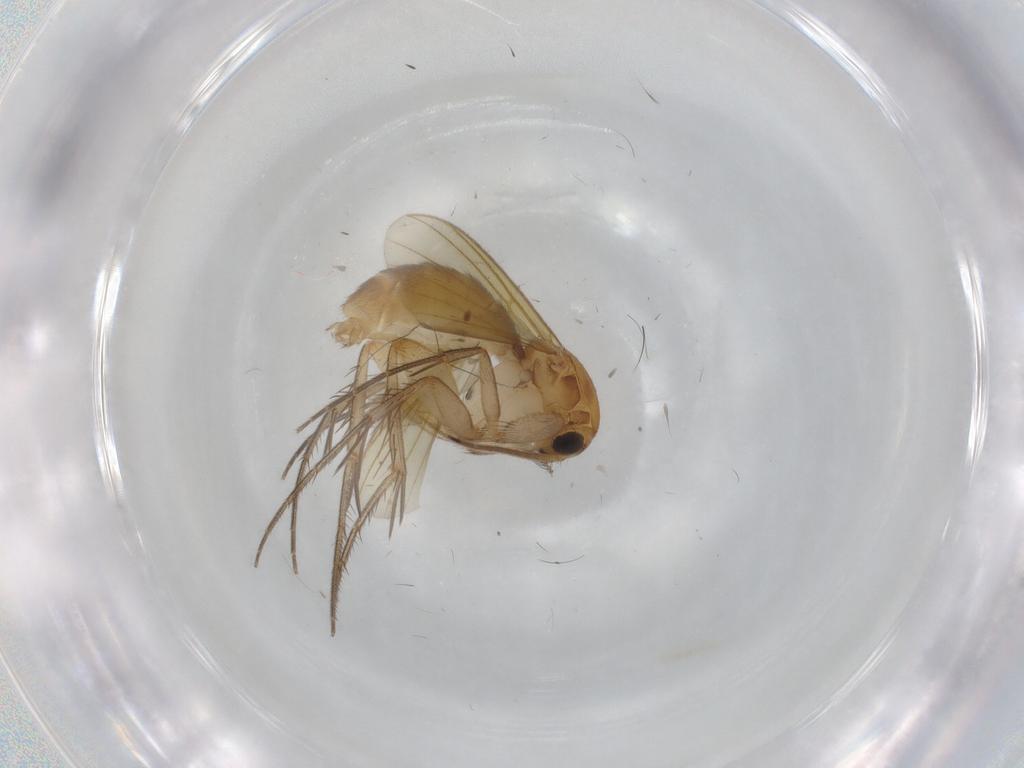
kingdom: Animalia
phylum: Arthropoda
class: Insecta
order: Diptera
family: Mycetophilidae
